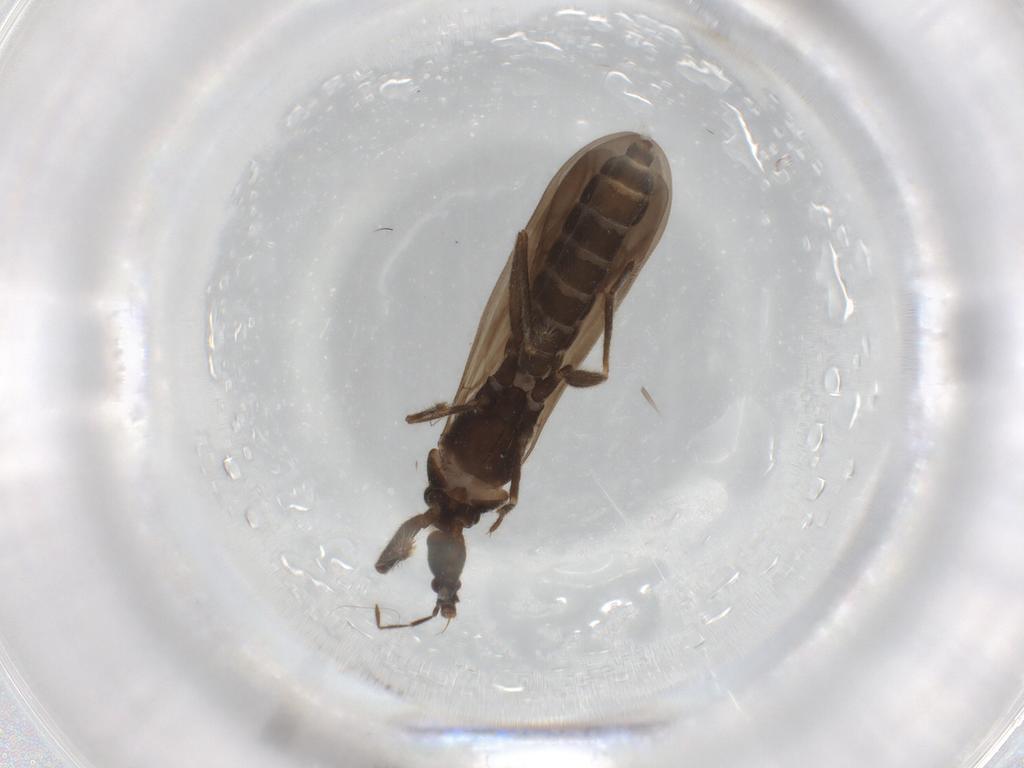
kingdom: Animalia
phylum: Arthropoda
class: Insecta
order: Hemiptera
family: Enicocephalidae
